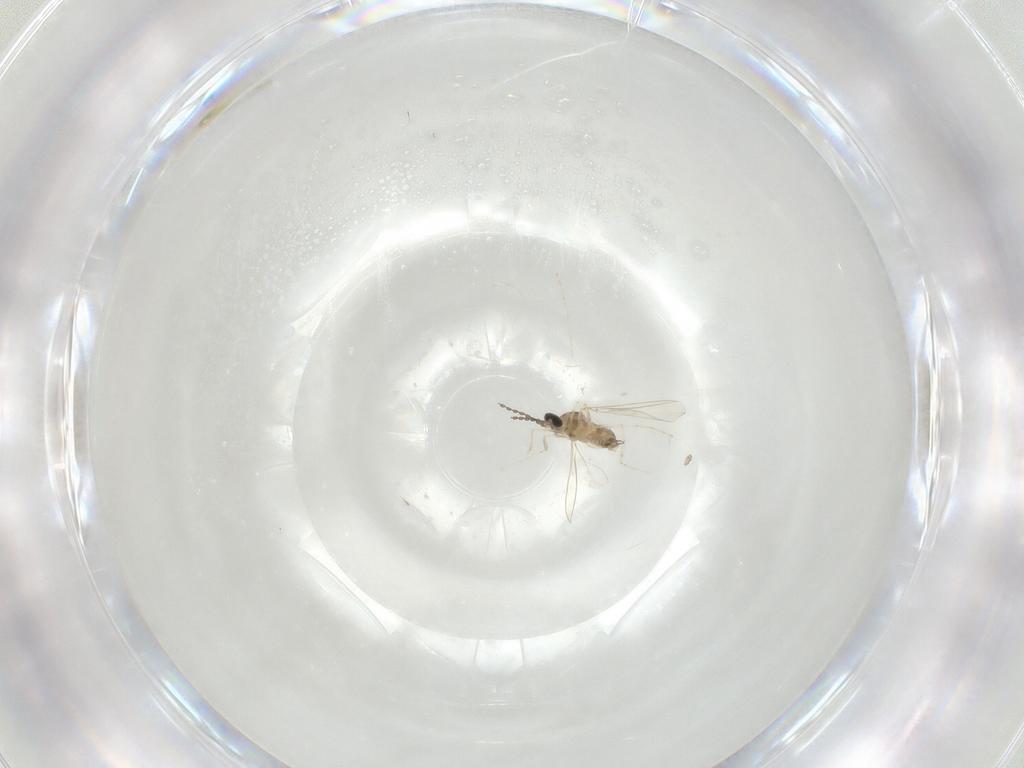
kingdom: Animalia
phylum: Arthropoda
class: Insecta
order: Diptera
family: Cecidomyiidae
